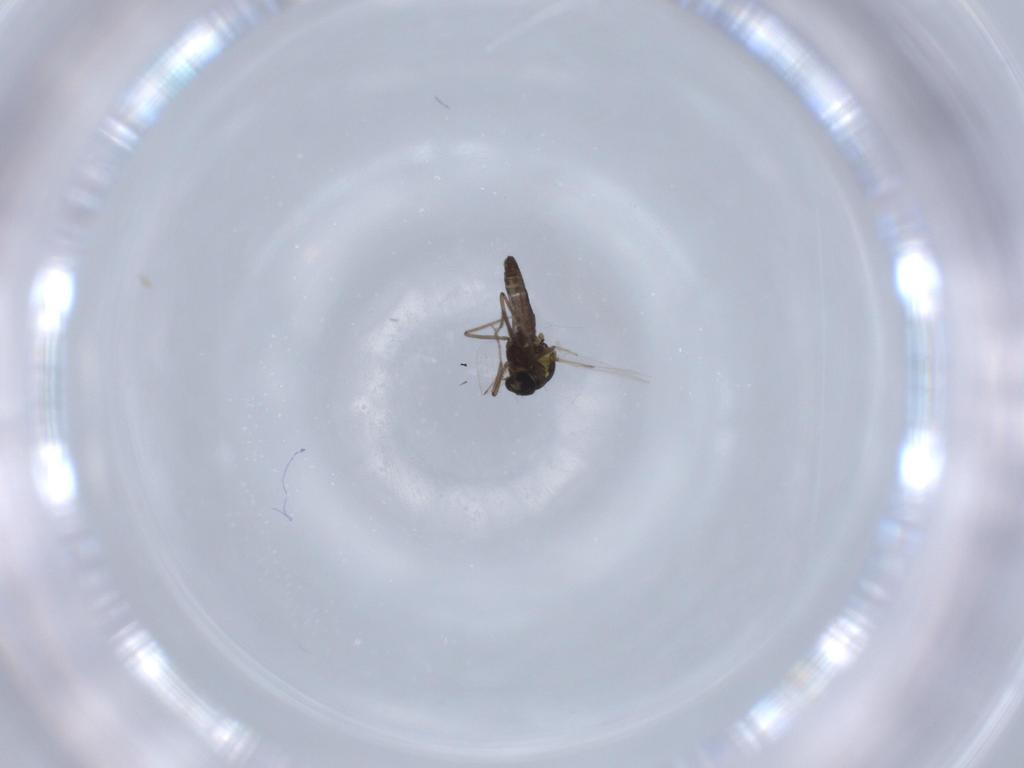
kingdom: Animalia
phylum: Arthropoda
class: Insecta
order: Diptera
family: Ceratopogonidae
